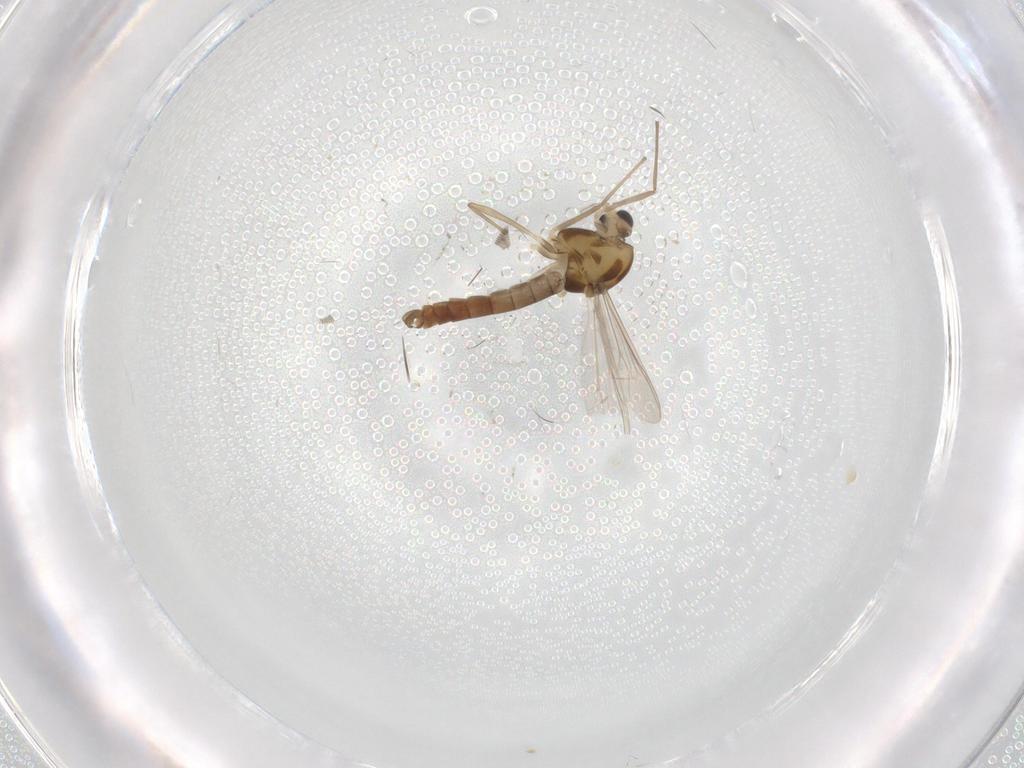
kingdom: Animalia
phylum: Arthropoda
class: Insecta
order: Diptera
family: Chironomidae
